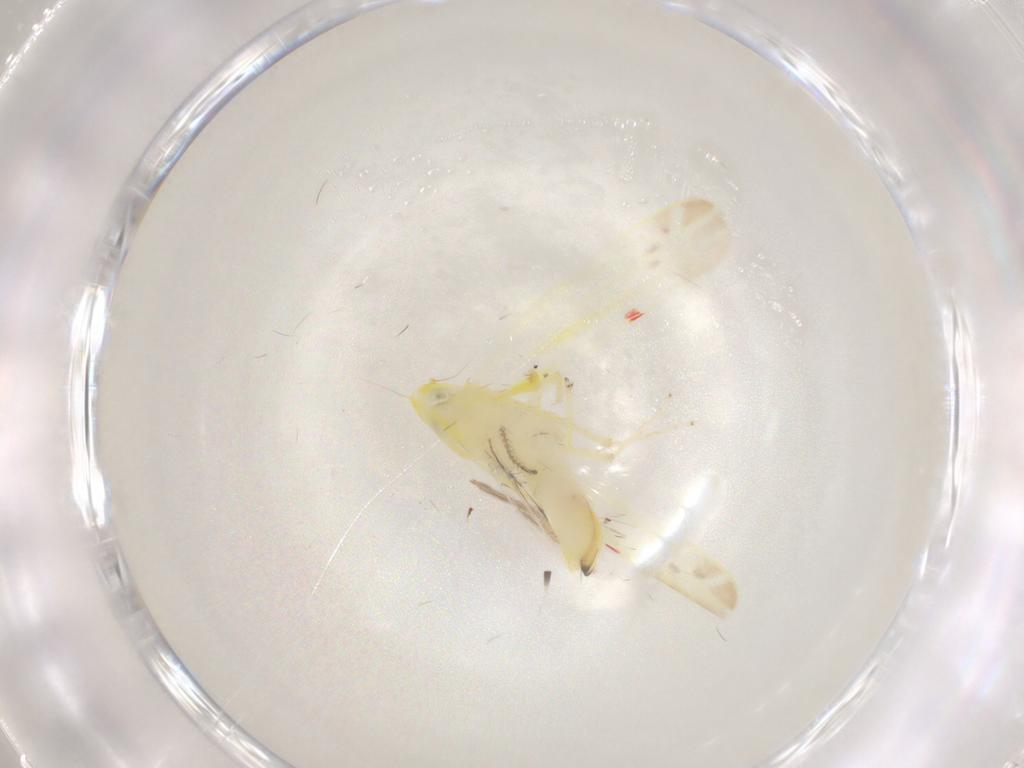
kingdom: Animalia
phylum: Arthropoda
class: Insecta
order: Hemiptera
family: Cicadellidae
